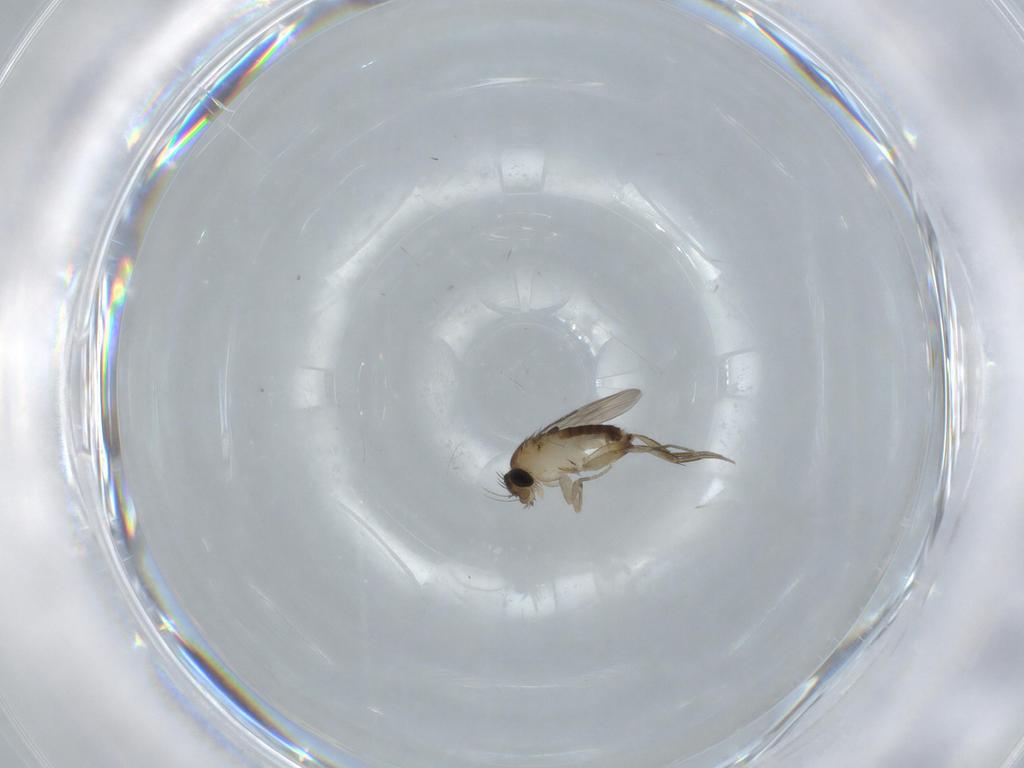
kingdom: Animalia
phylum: Arthropoda
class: Insecta
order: Diptera
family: Phoridae
